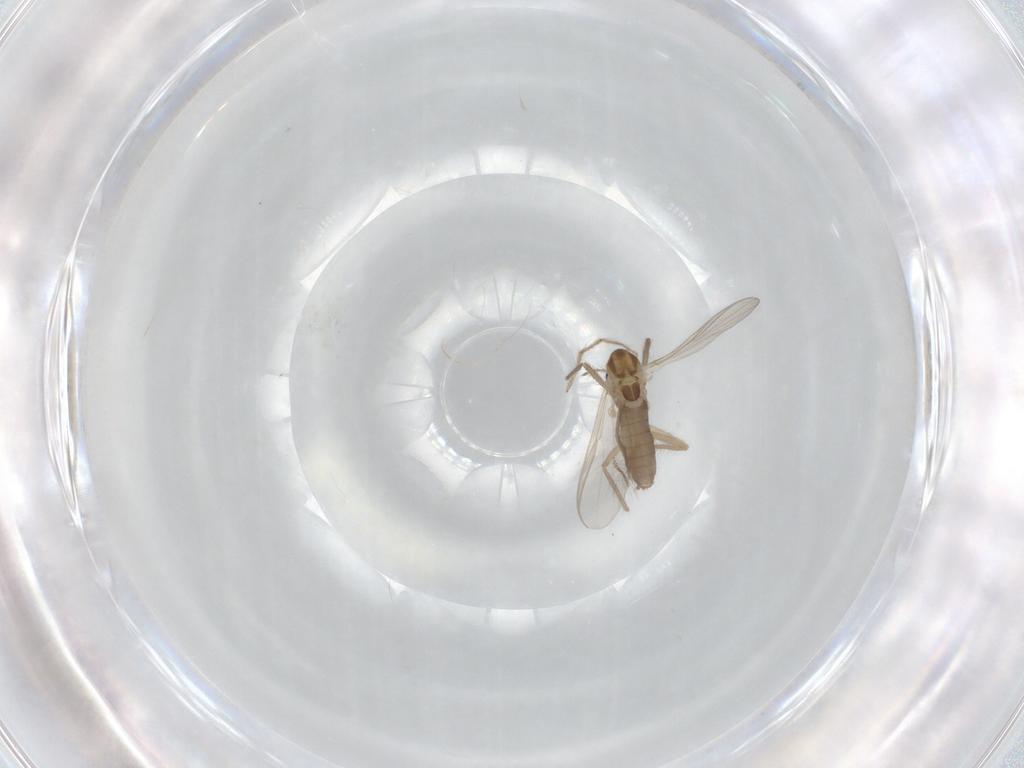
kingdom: Animalia
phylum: Arthropoda
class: Insecta
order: Diptera
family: Chironomidae
